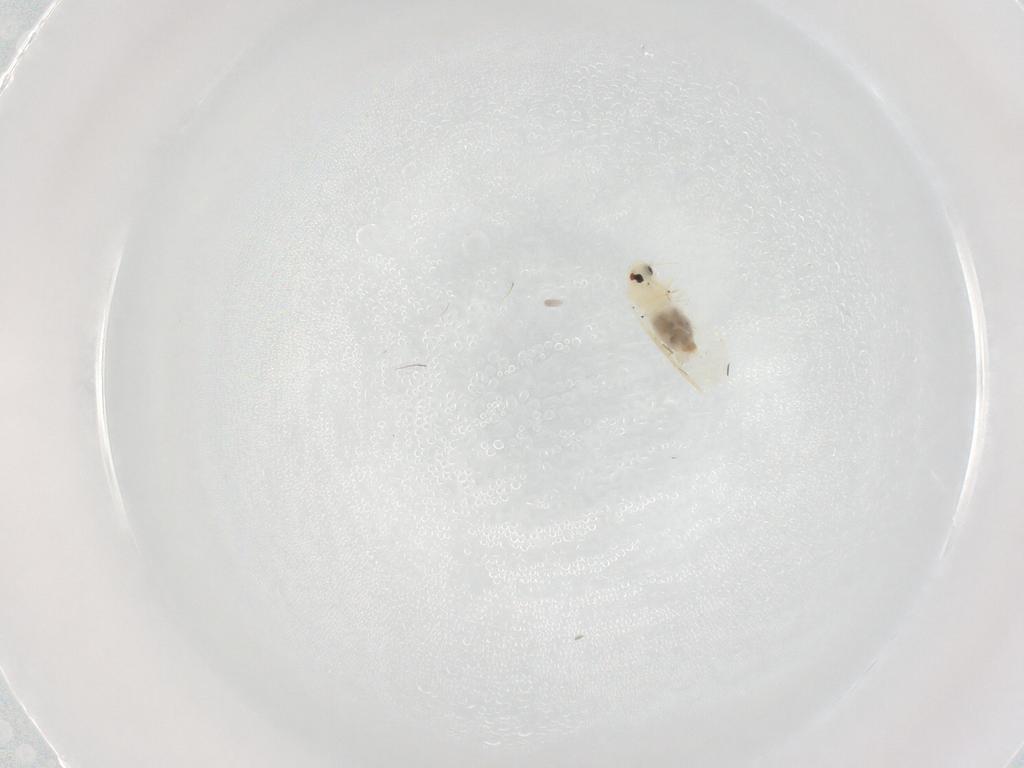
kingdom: Animalia
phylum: Arthropoda
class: Insecta
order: Hemiptera
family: Aleyrodidae
